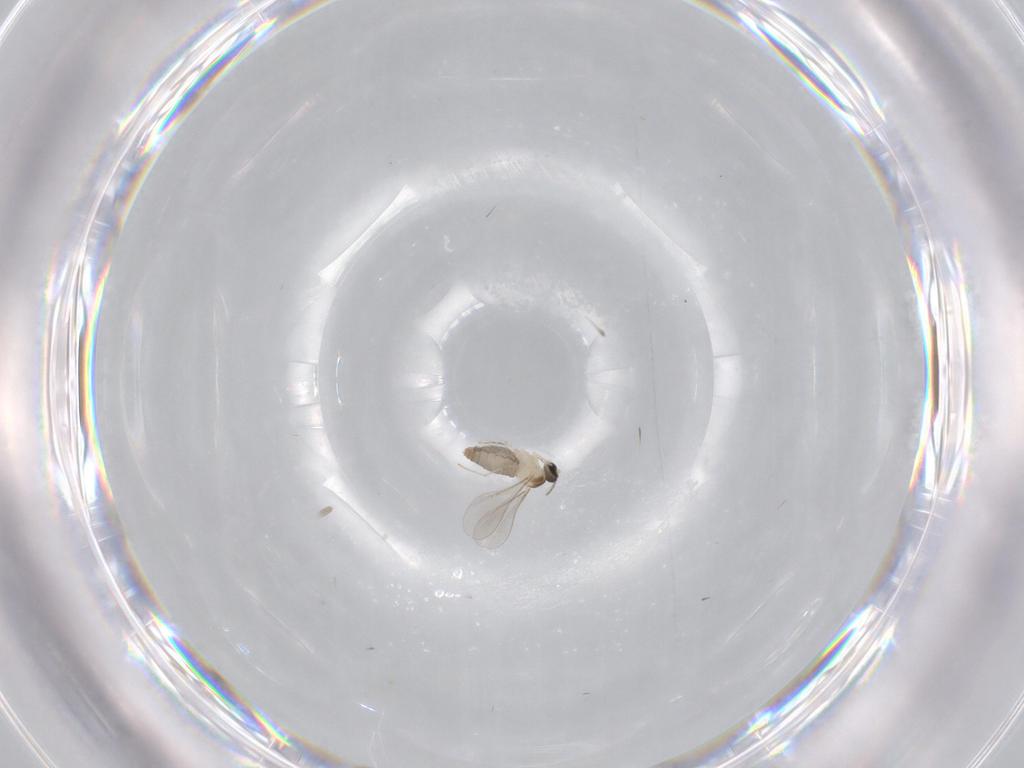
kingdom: Animalia
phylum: Arthropoda
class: Insecta
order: Diptera
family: Cecidomyiidae
